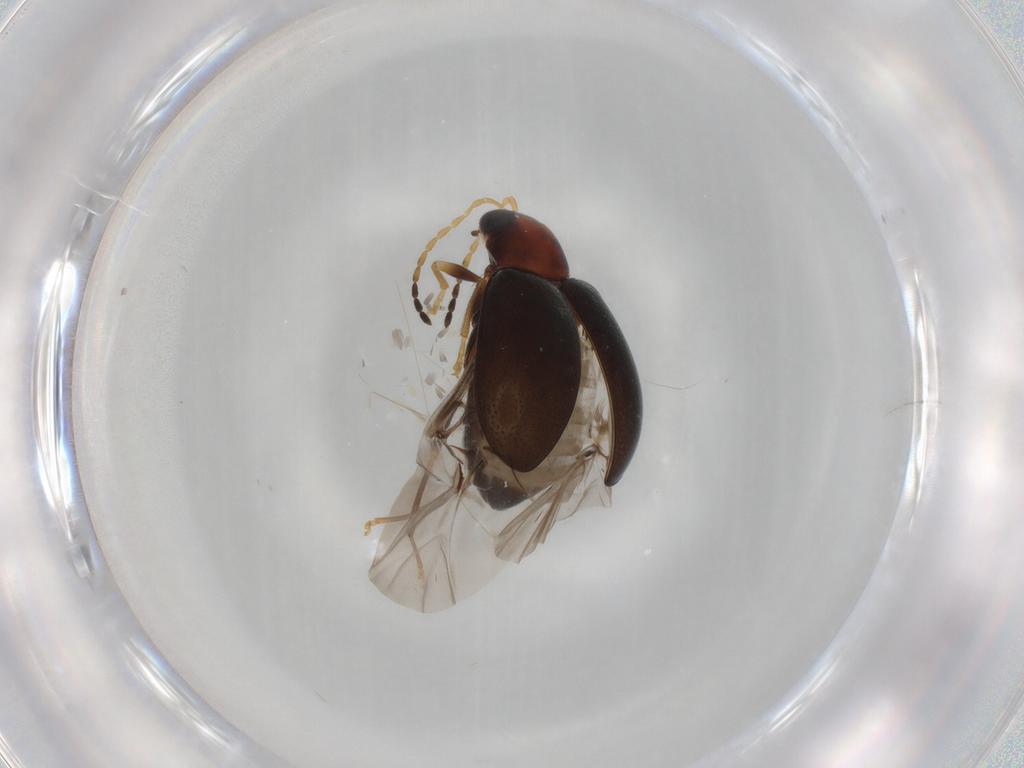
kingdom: Animalia
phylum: Arthropoda
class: Insecta
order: Coleoptera
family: Chrysomelidae
